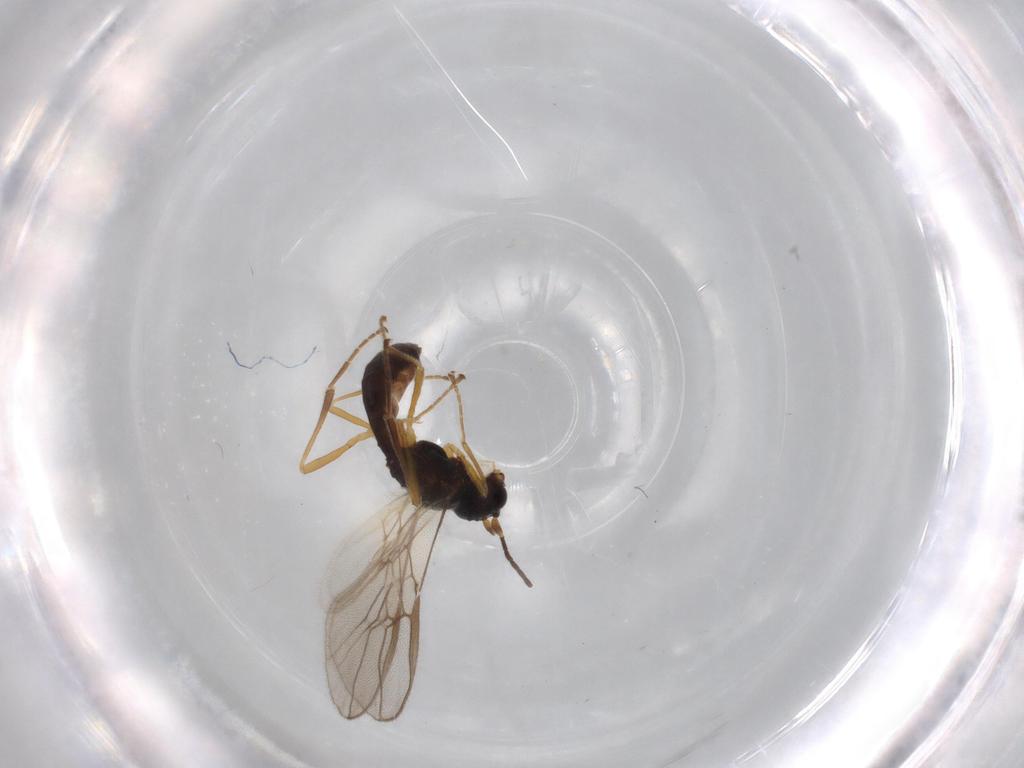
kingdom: Animalia
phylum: Arthropoda
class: Insecta
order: Hymenoptera
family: Braconidae
